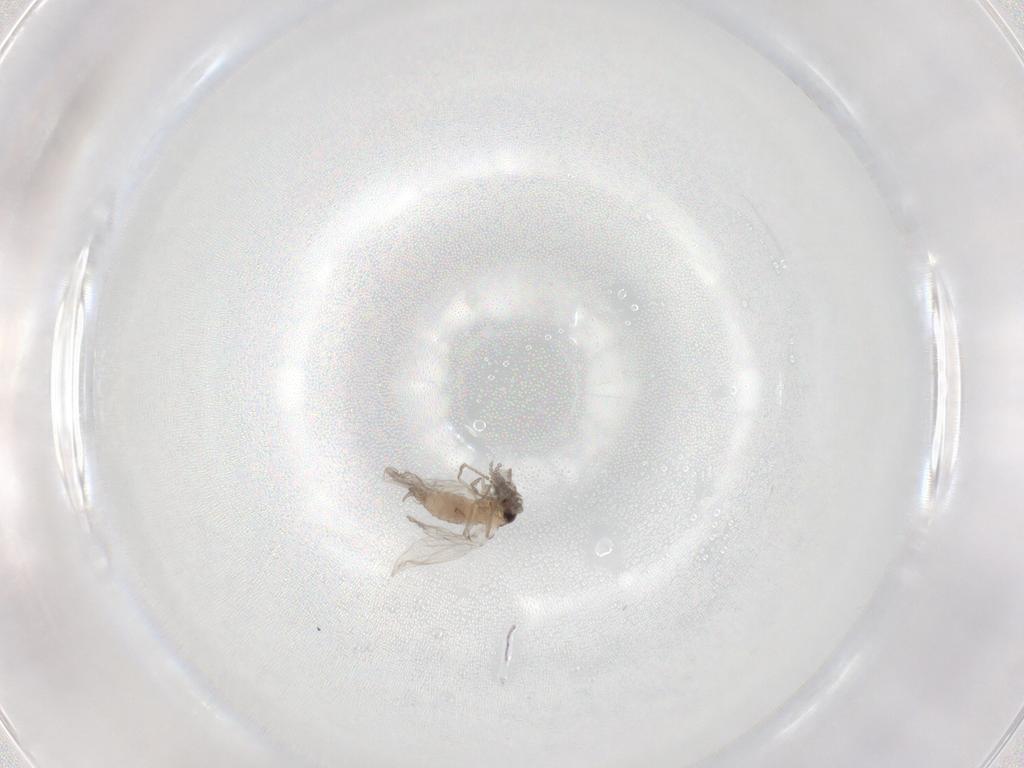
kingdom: Animalia
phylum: Arthropoda
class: Insecta
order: Diptera
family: Psychodidae
